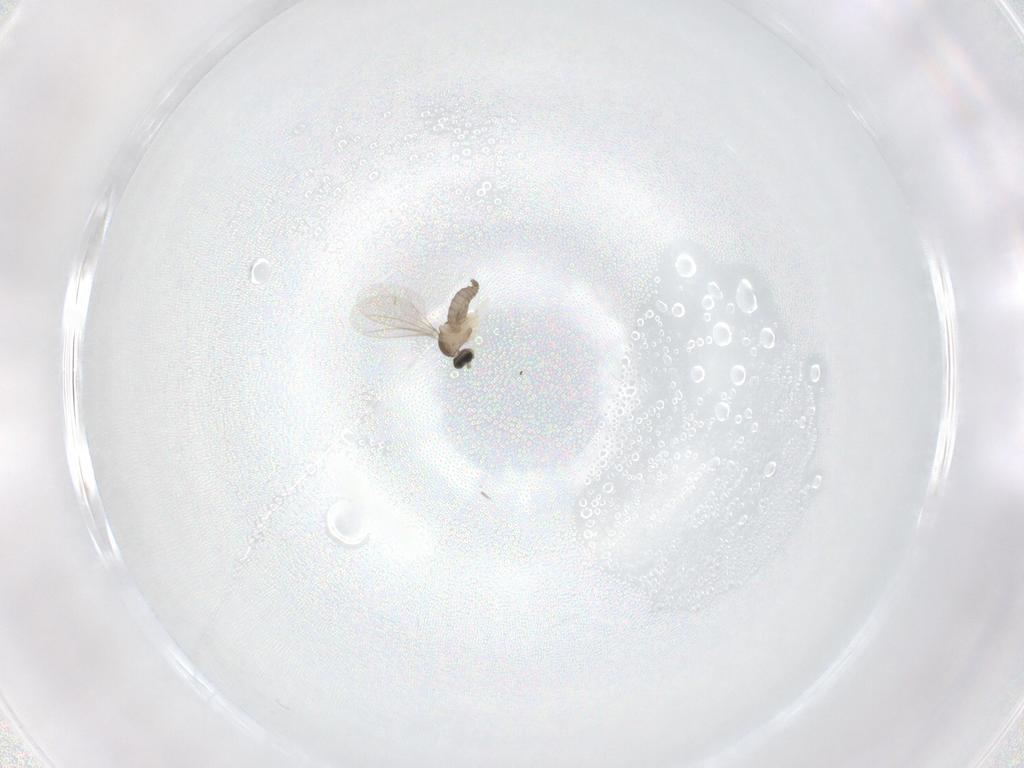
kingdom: Animalia
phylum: Arthropoda
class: Insecta
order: Diptera
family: Cecidomyiidae
